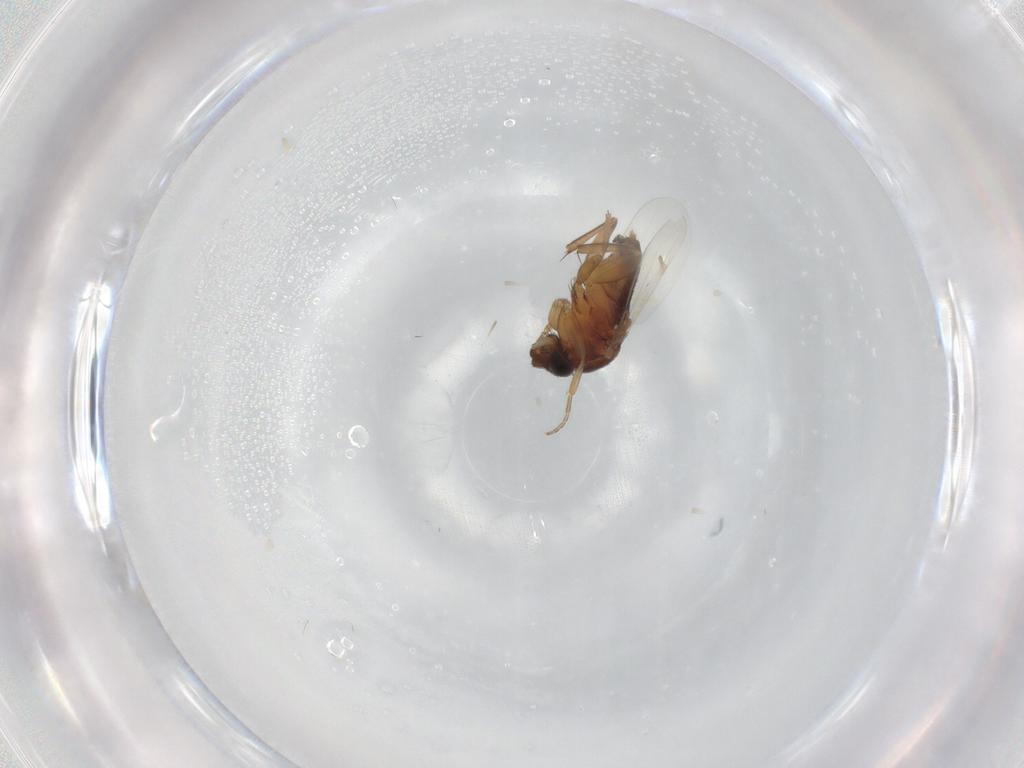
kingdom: Animalia
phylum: Arthropoda
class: Insecta
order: Diptera
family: Phoridae
